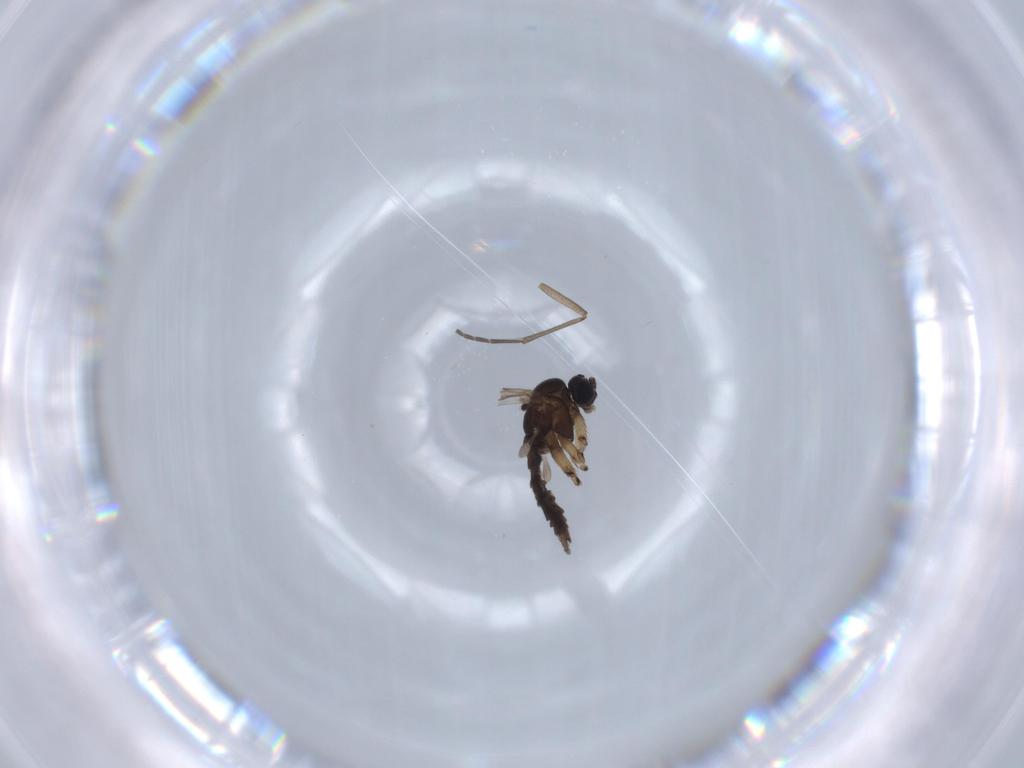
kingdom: Animalia
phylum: Arthropoda
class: Insecta
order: Diptera
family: Sciaridae
